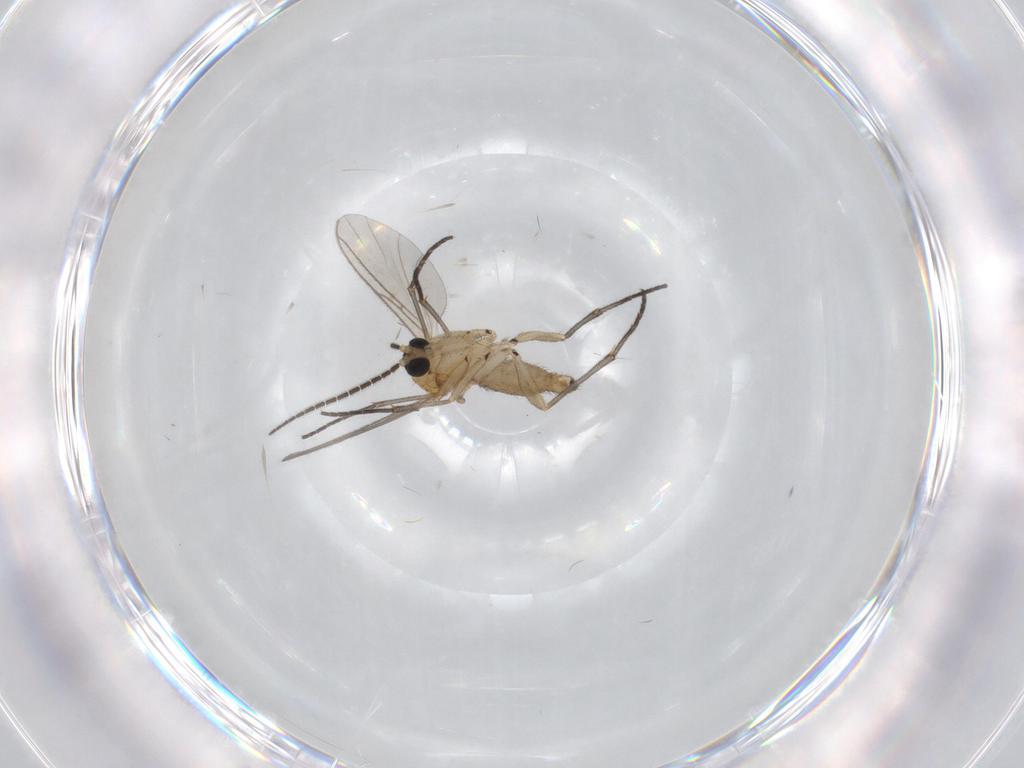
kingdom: Animalia
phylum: Arthropoda
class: Insecta
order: Diptera
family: Sciaridae
